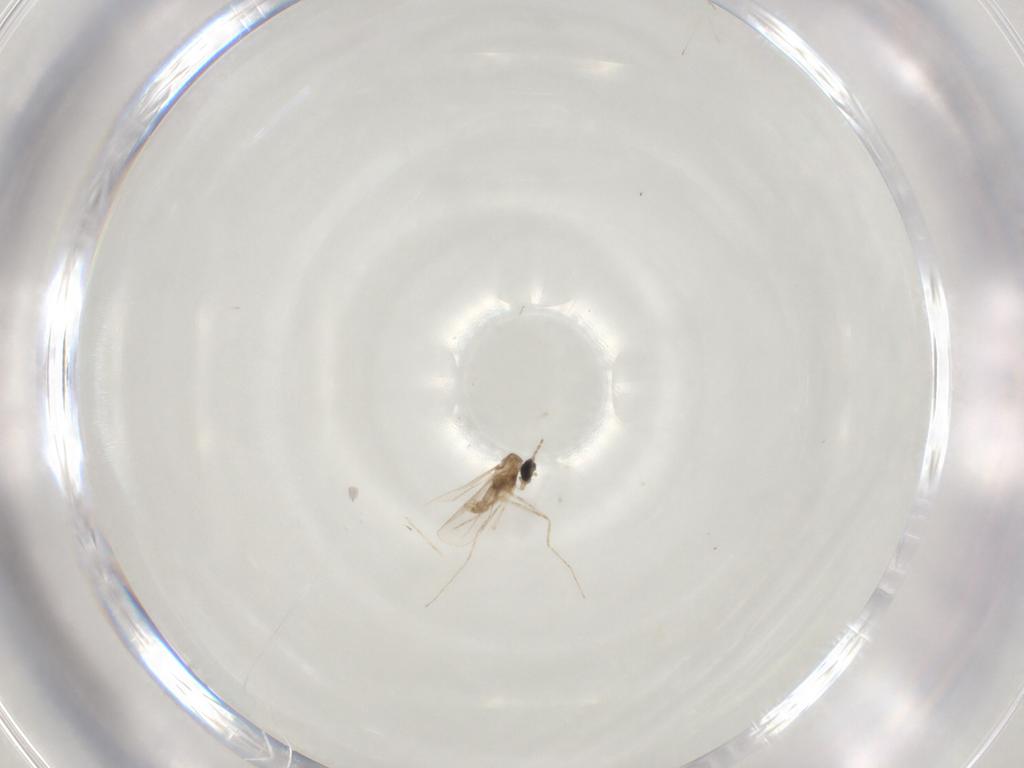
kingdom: Animalia
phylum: Arthropoda
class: Insecta
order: Diptera
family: Cecidomyiidae
